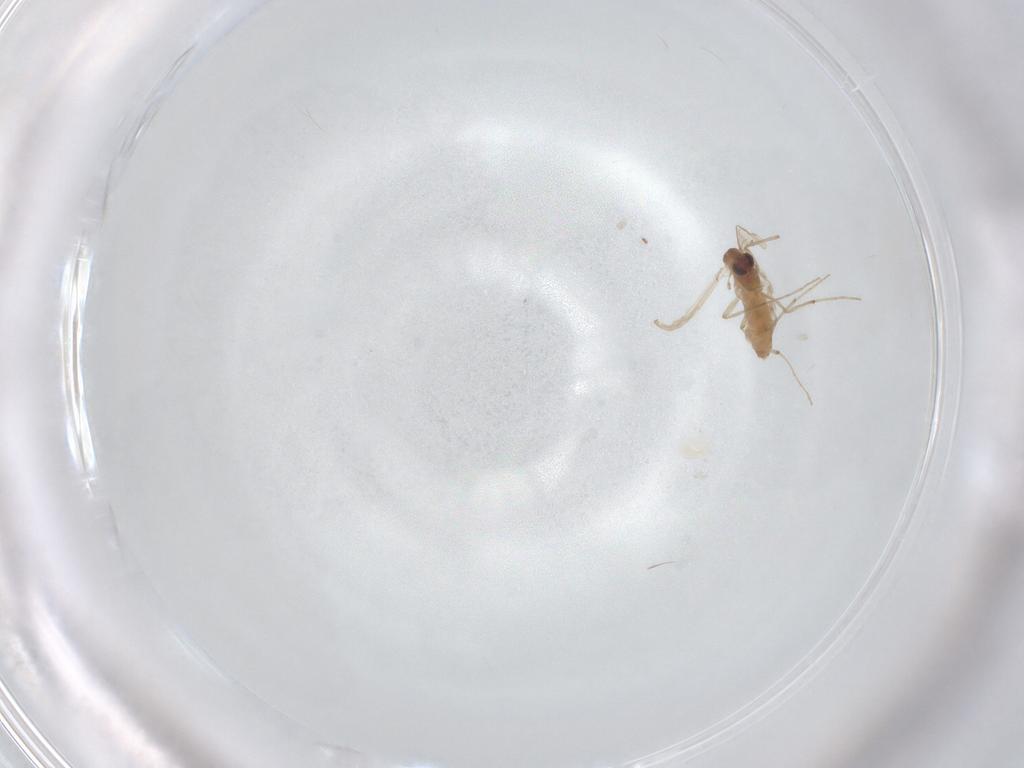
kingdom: Animalia
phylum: Arthropoda
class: Insecta
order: Diptera
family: Chironomidae
